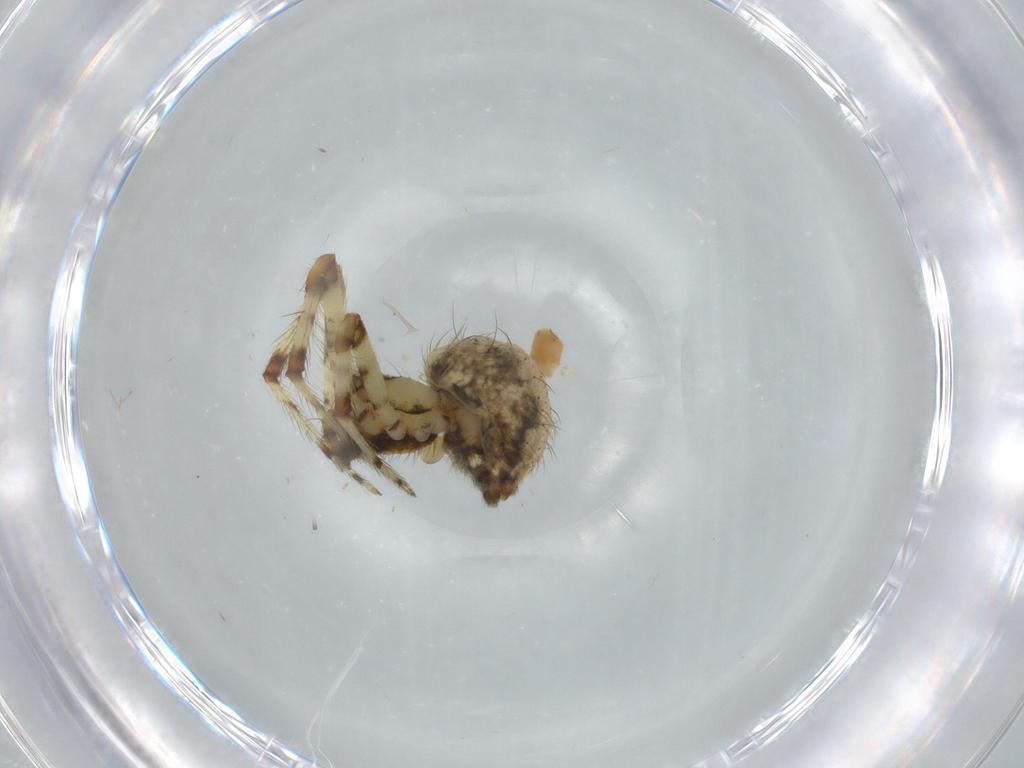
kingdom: Animalia
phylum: Arthropoda
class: Arachnida
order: Araneae
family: Theridiidae
